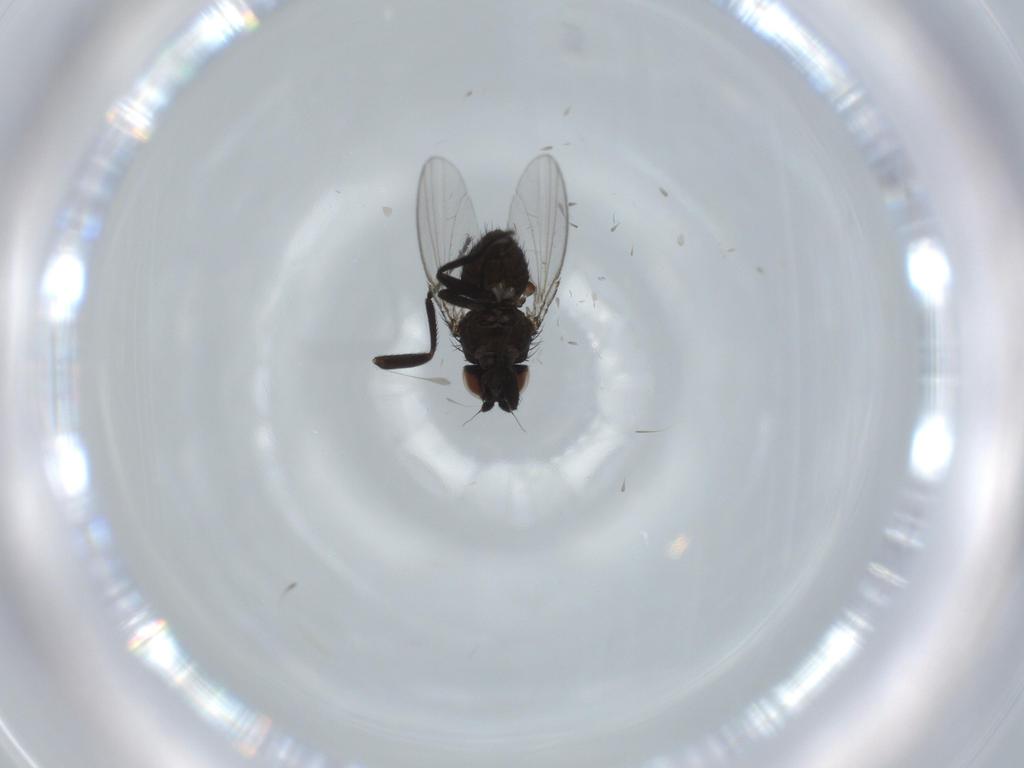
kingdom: Animalia
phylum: Arthropoda
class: Insecta
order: Diptera
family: Milichiidae
